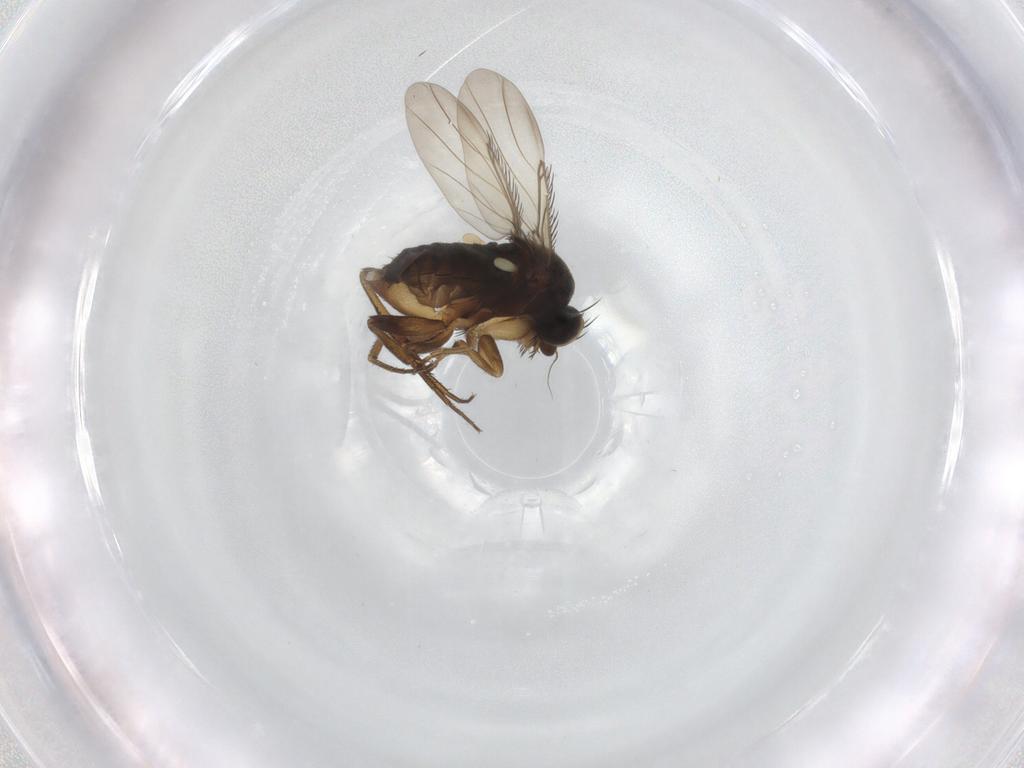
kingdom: Animalia
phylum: Arthropoda
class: Insecta
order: Diptera
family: Phoridae
